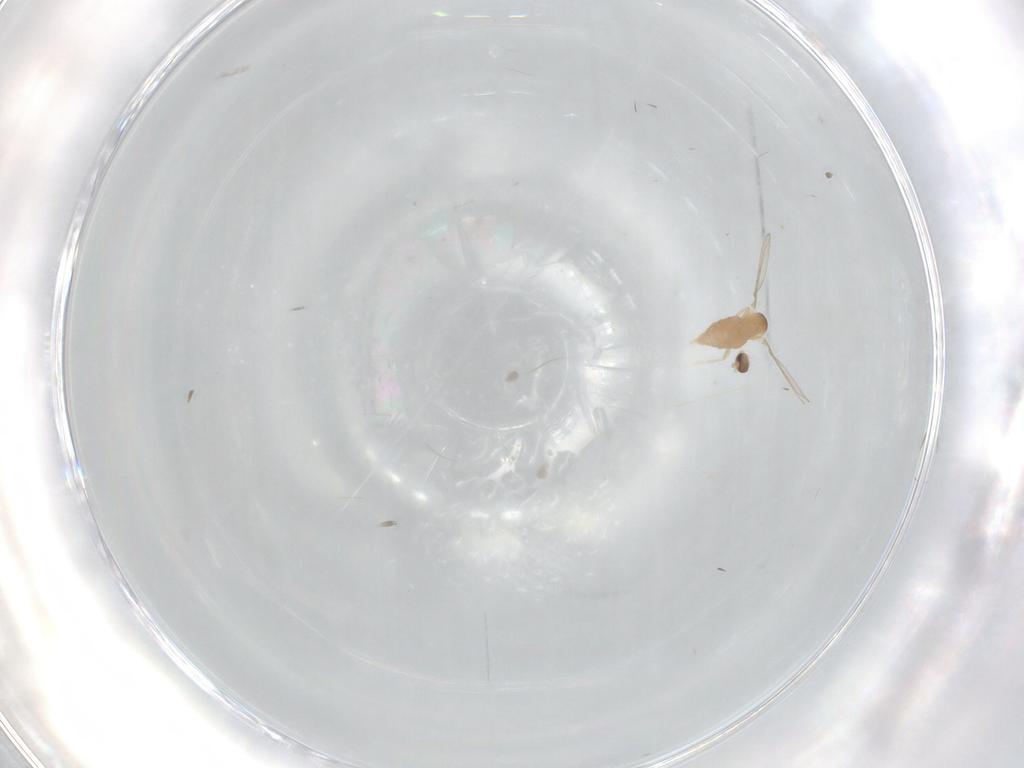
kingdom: Animalia
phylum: Arthropoda
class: Insecta
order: Diptera
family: Cecidomyiidae
